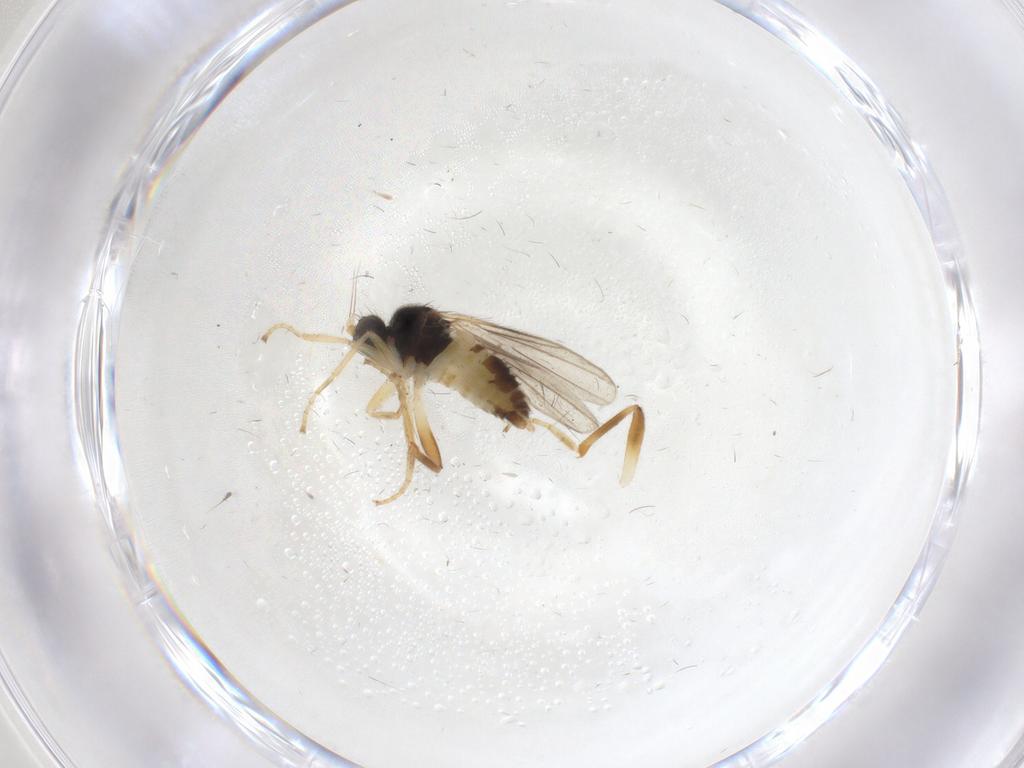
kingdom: Animalia
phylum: Arthropoda
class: Insecta
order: Diptera
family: Hybotidae
